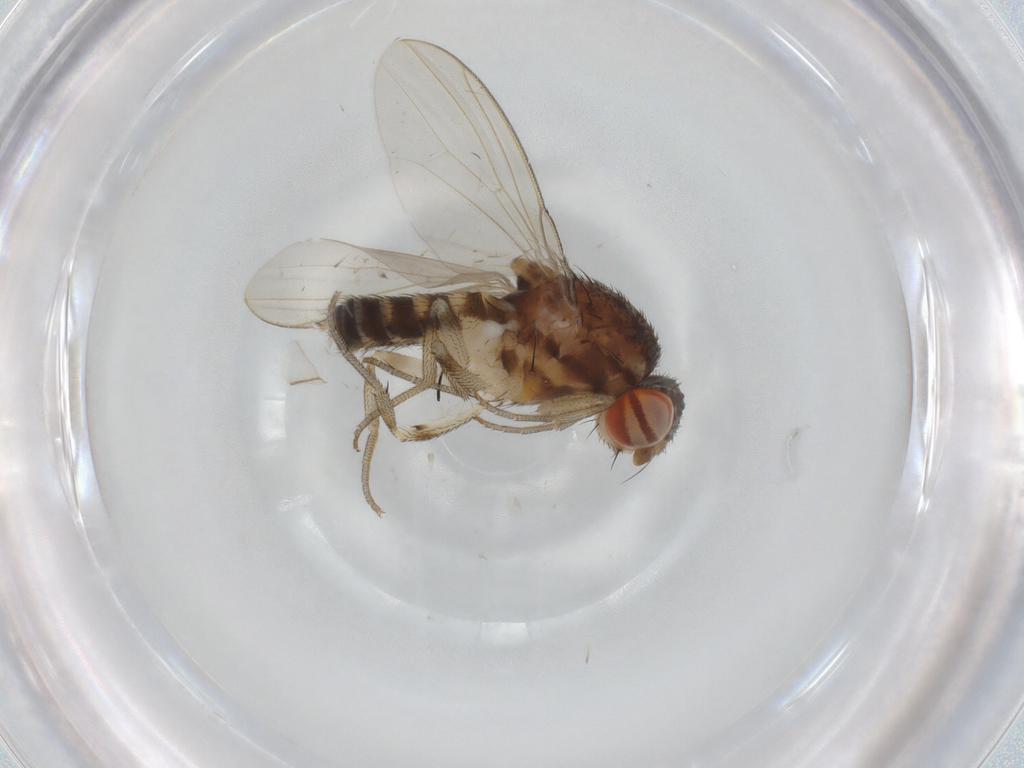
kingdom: Animalia
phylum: Arthropoda
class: Insecta
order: Diptera
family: Drosophilidae
